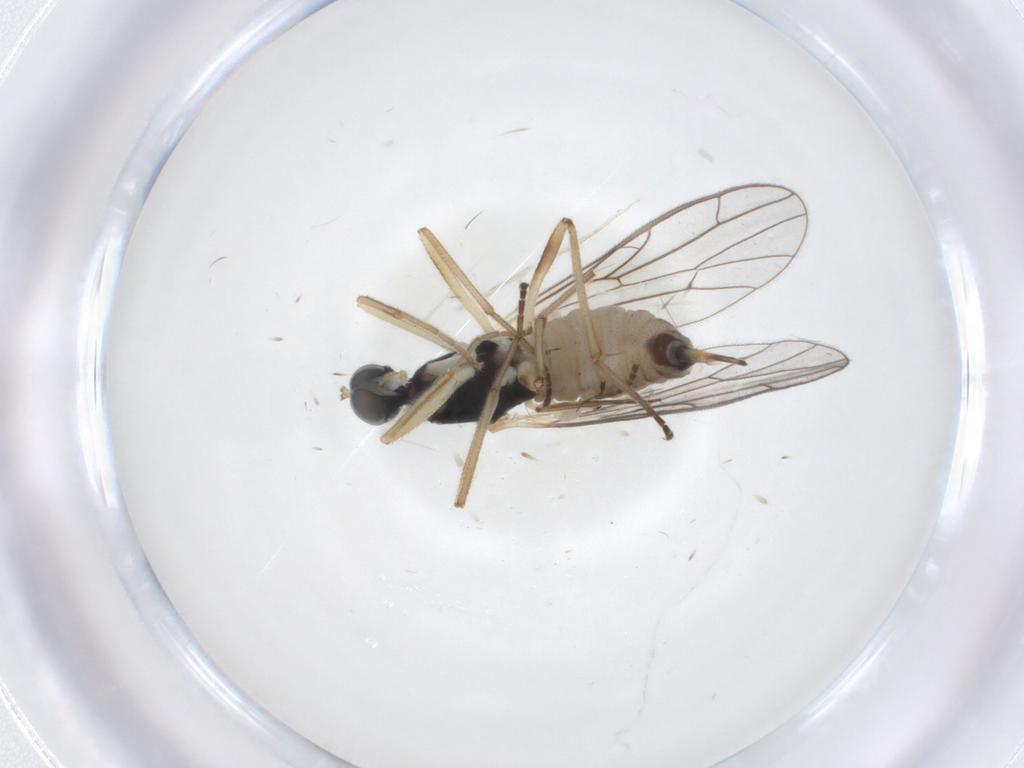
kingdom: Animalia
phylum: Arthropoda
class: Insecta
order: Diptera
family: Empididae
